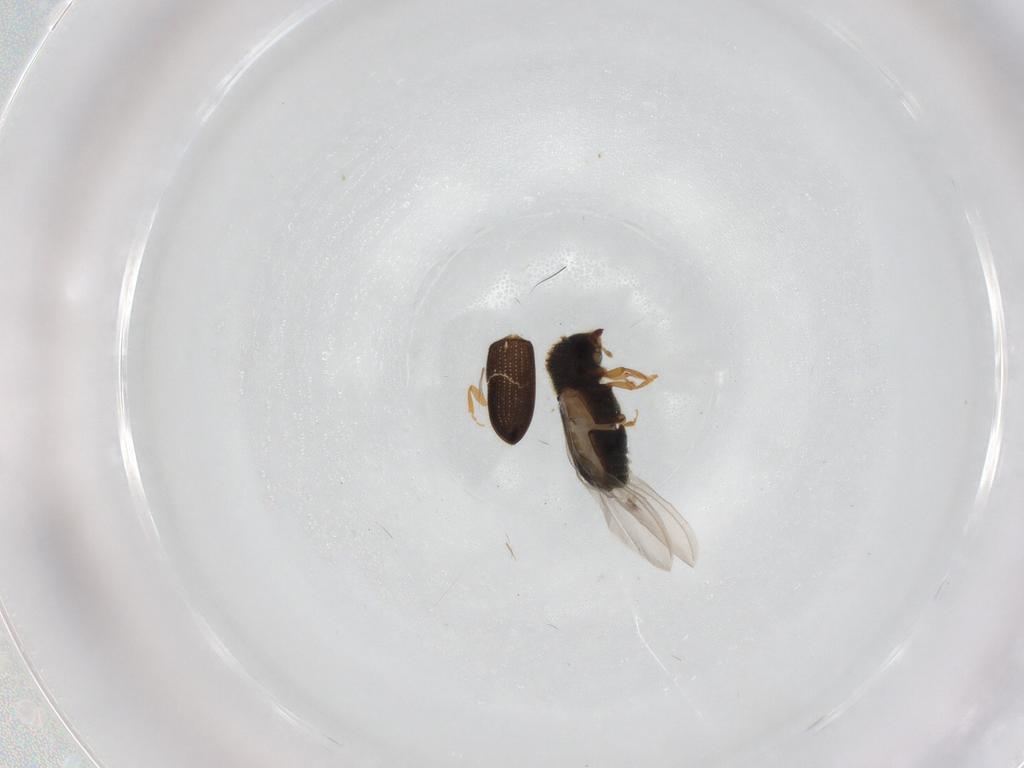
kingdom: Animalia
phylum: Arthropoda
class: Insecta
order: Coleoptera
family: Curculionidae
